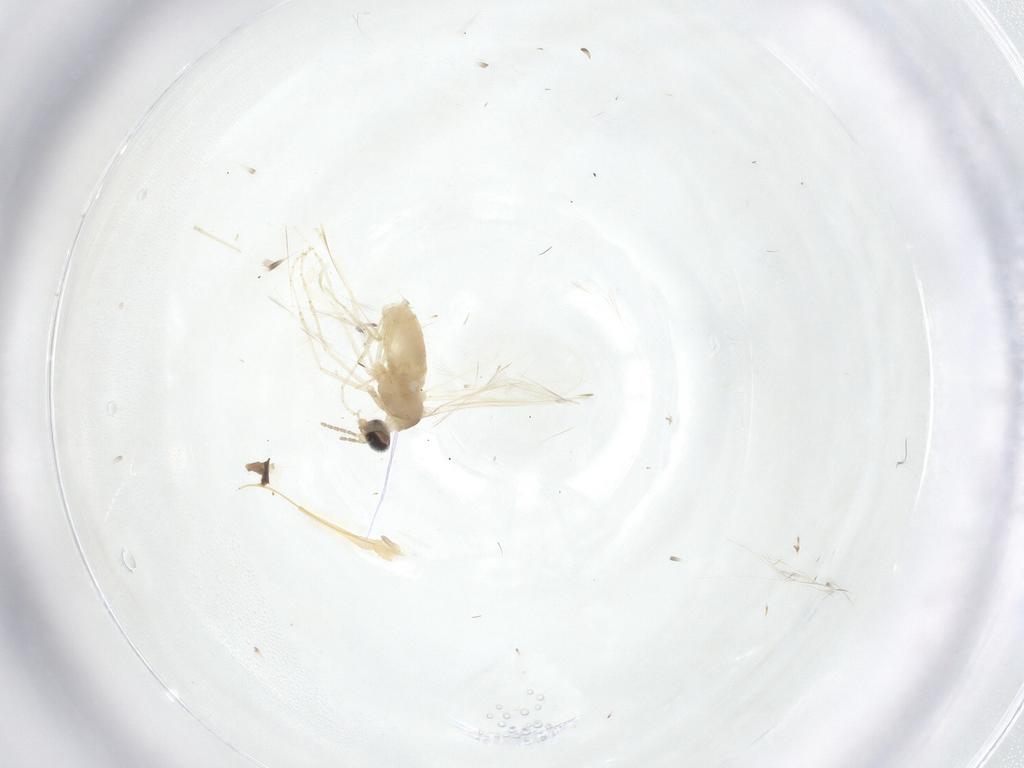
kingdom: Animalia
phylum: Arthropoda
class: Insecta
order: Diptera
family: Cecidomyiidae
